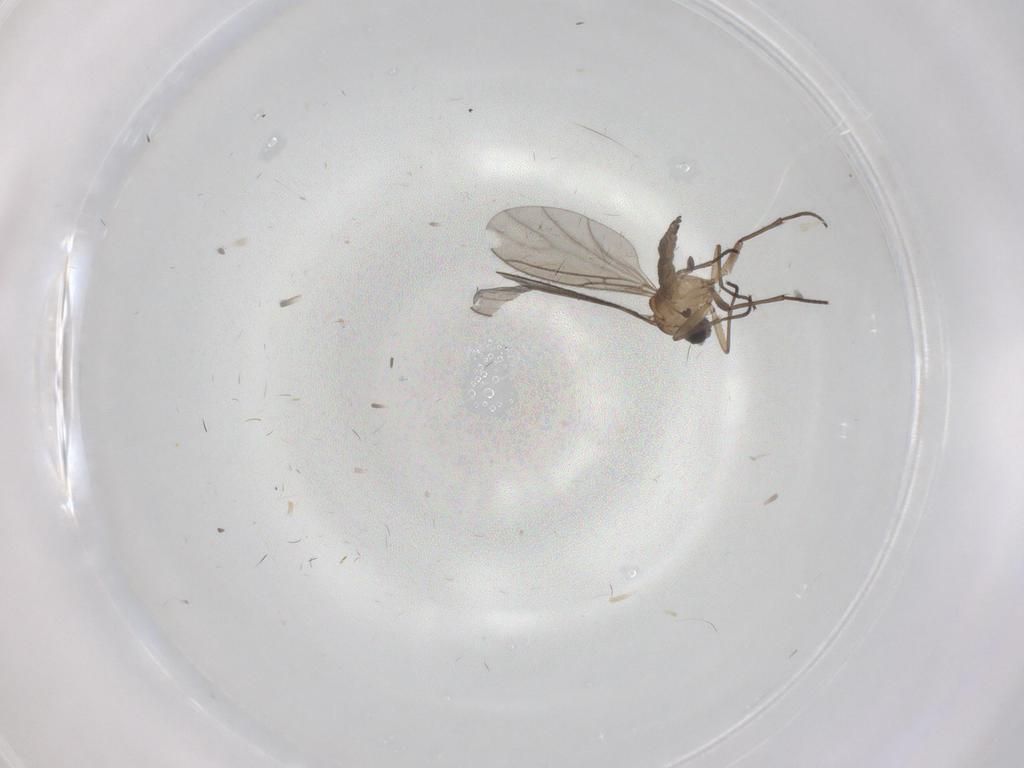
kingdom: Animalia
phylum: Arthropoda
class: Insecta
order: Diptera
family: Sciaridae
